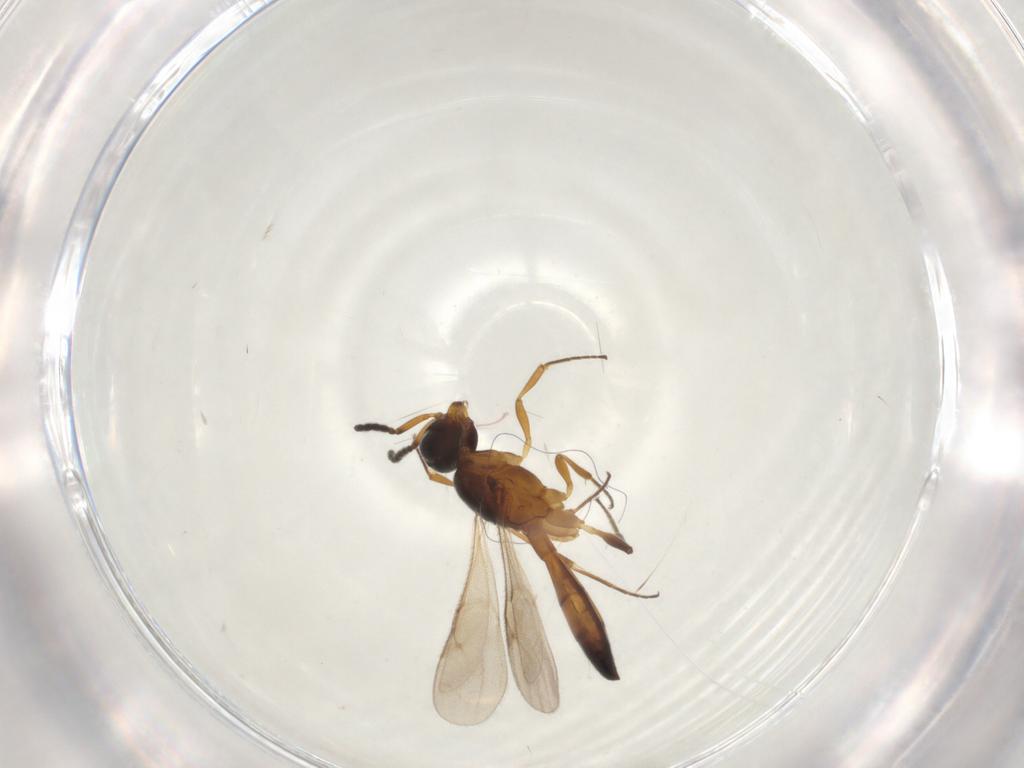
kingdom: Animalia
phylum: Arthropoda
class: Insecta
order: Hymenoptera
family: Scelionidae
